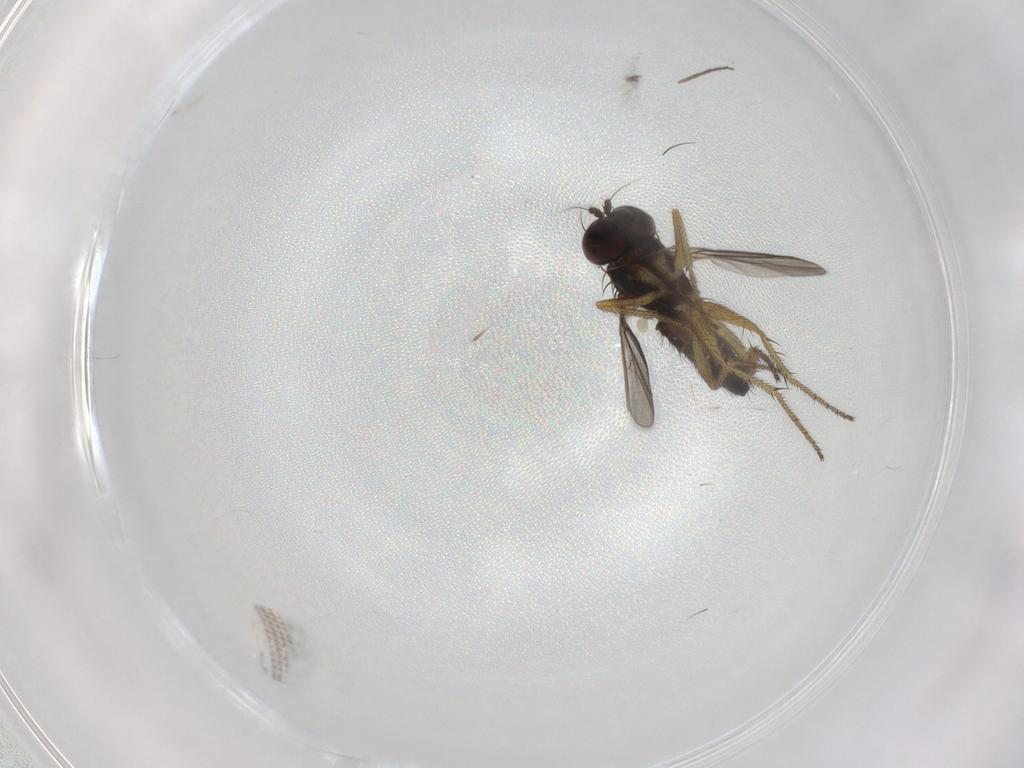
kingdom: Animalia
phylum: Arthropoda
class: Insecta
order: Diptera
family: Chironomidae
